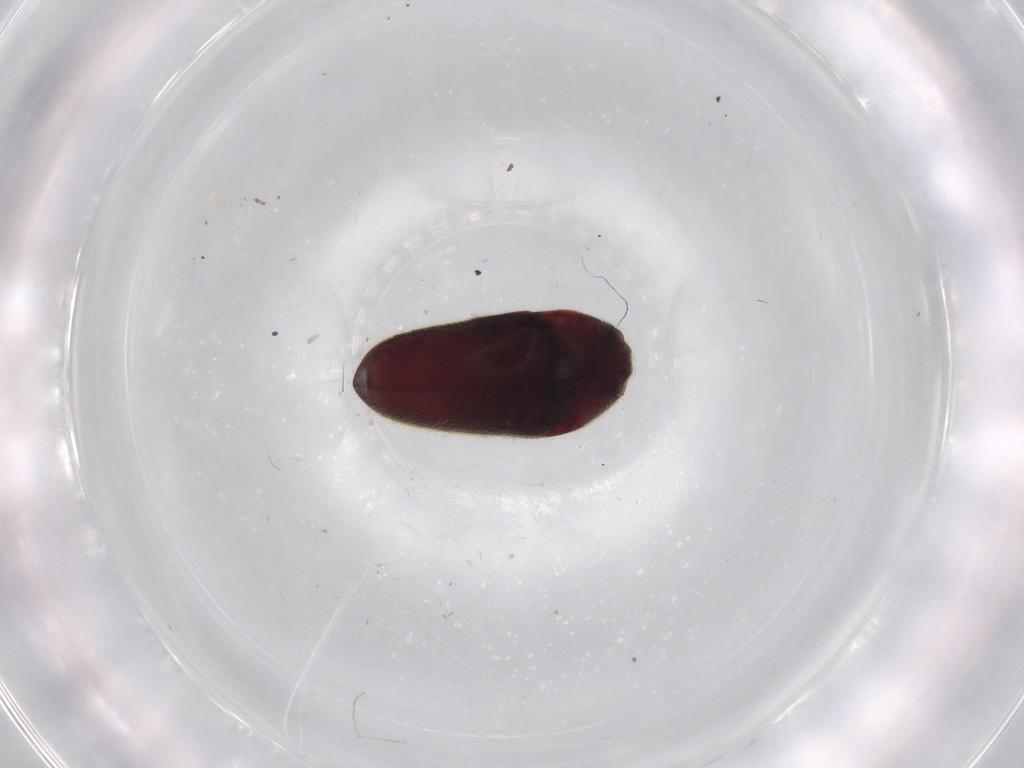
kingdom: Animalia
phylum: Arthropoda
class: Insecta
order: Coleoptera
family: Throscidae
